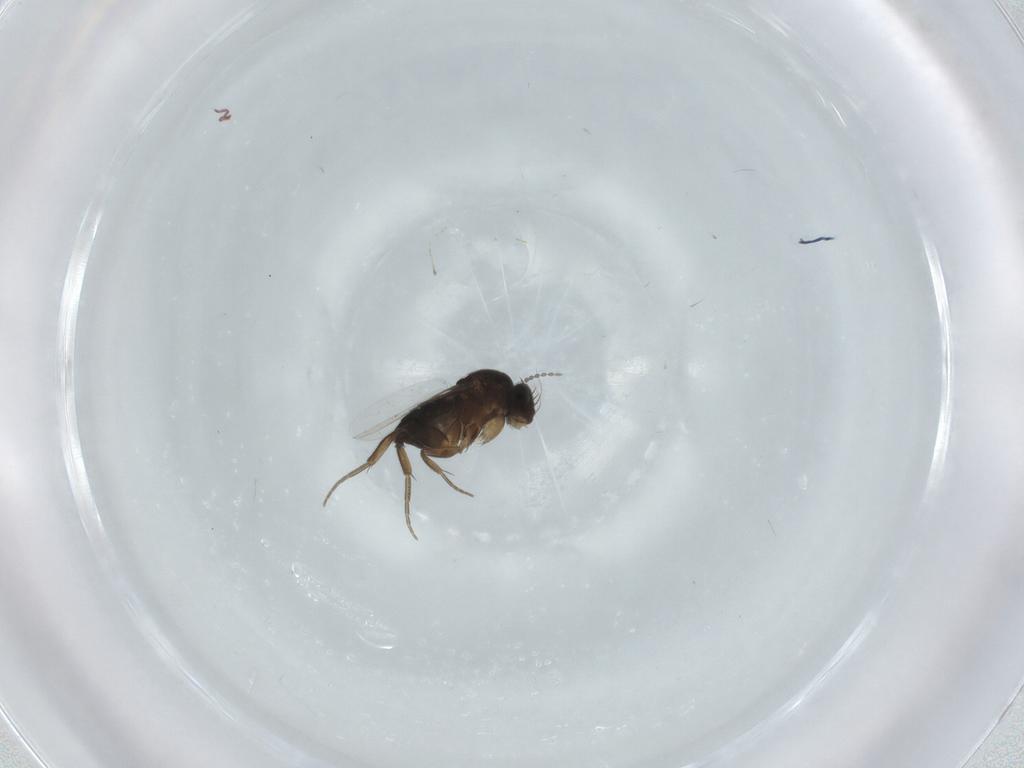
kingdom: Animalia
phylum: Arthropoda
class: Insecta
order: Diptera
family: Phoridae
